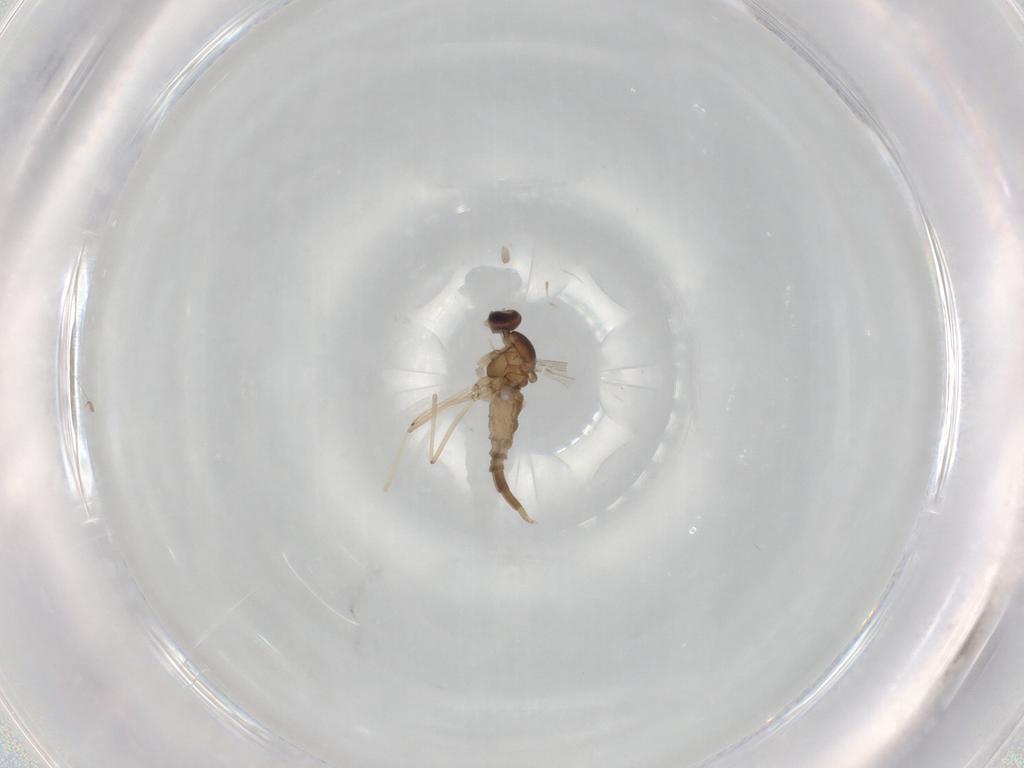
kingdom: Animalia
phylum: Arthropoda
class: Insecta
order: Diptera
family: Cecidomyiidae
